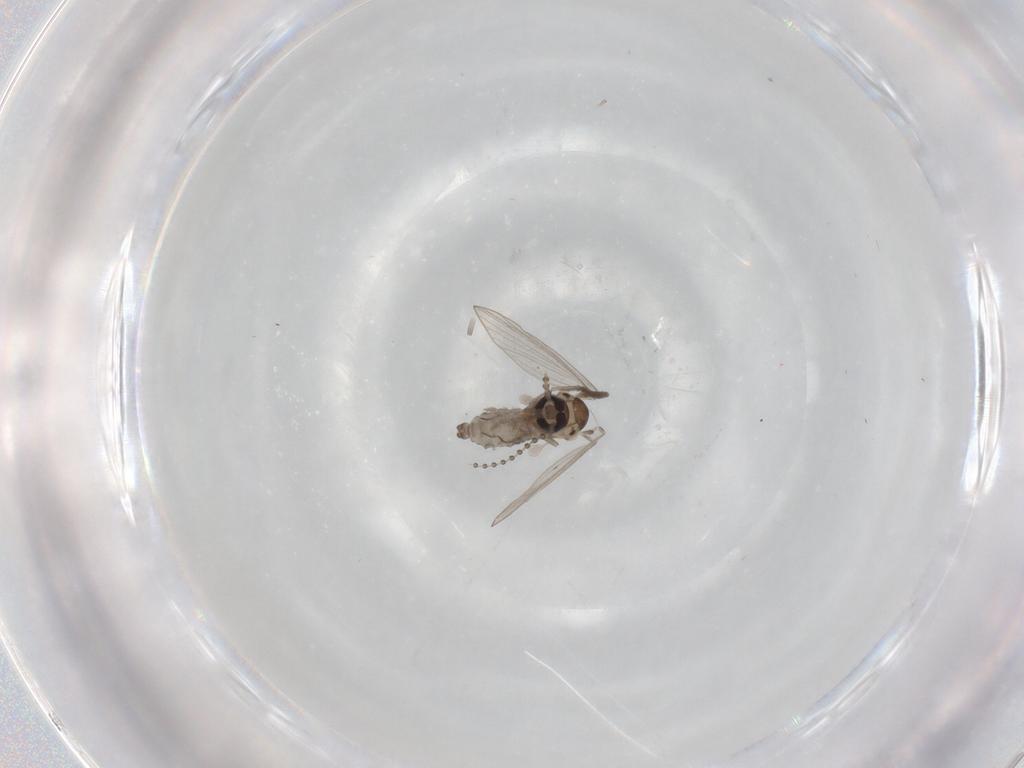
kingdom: Animalia
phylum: Arthropoda
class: Insecta
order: Diptera
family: Psychodidae
